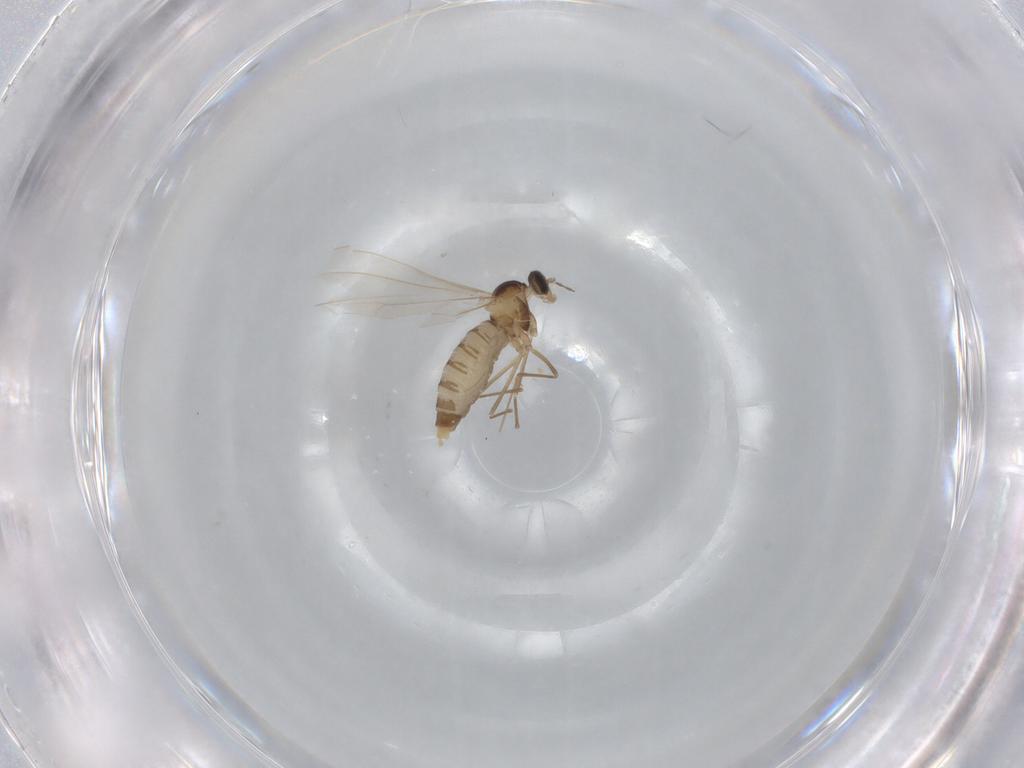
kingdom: Animalia
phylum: Arthropoda
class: Insecta
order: Diptera
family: Cecidomyiidae
